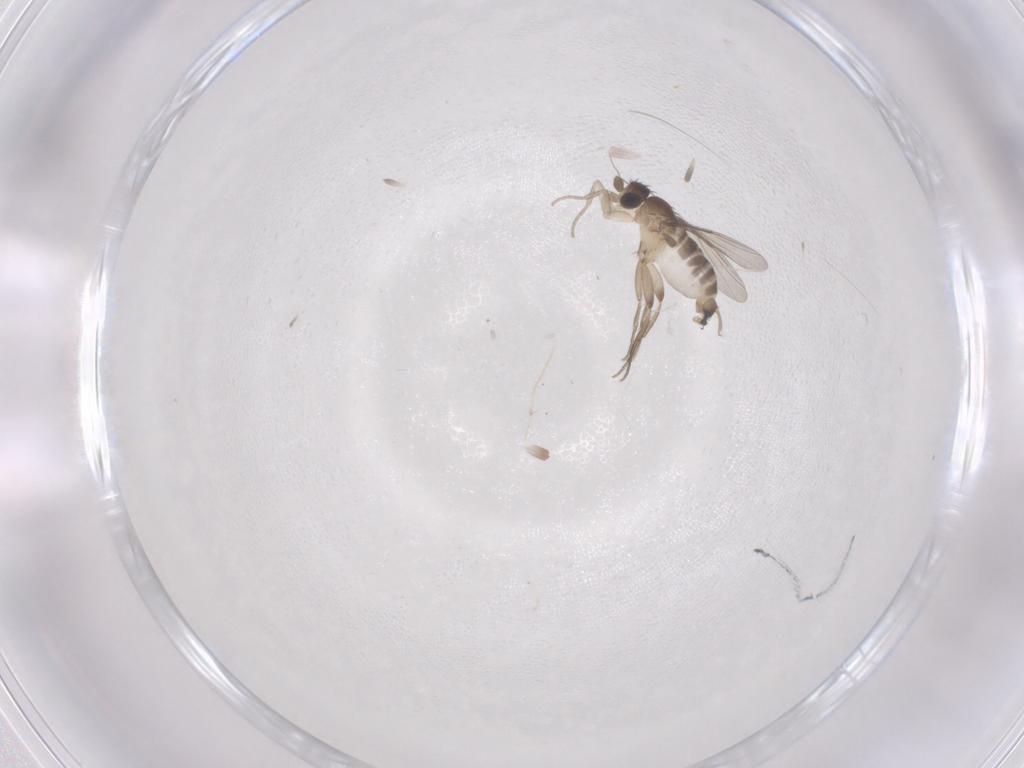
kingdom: Animalia
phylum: Arthropoda
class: Insecta
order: Diptera
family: Phoridae
